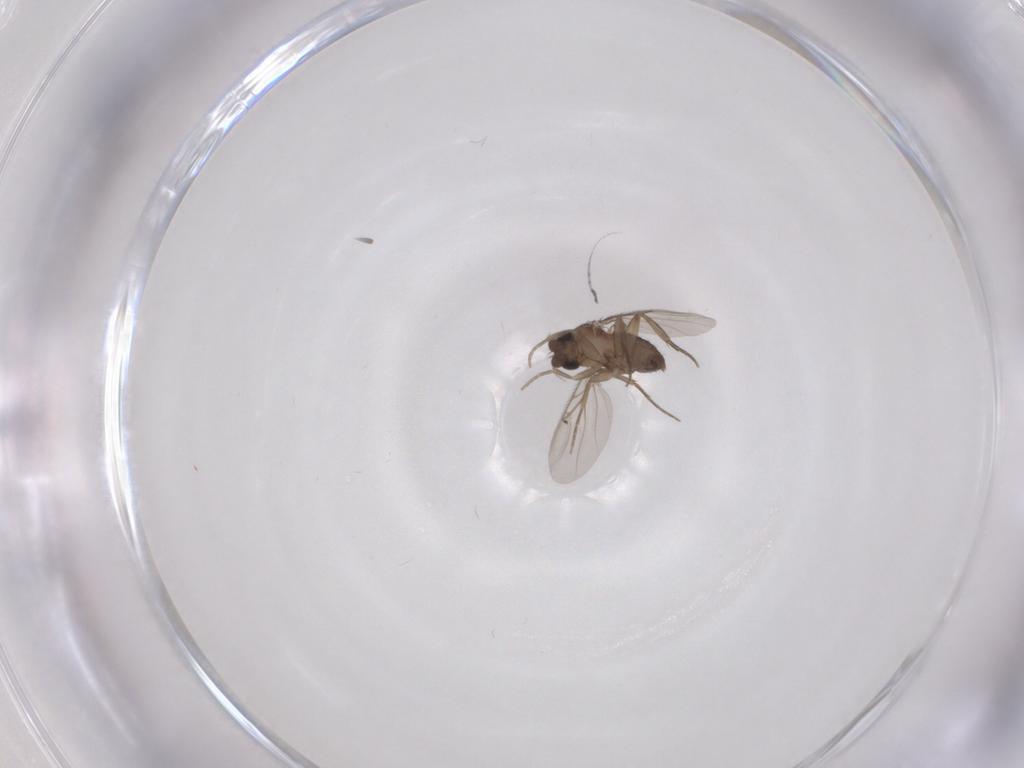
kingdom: Animalia
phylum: Arthropoda
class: Insecta
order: Diptera
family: Phoridae
